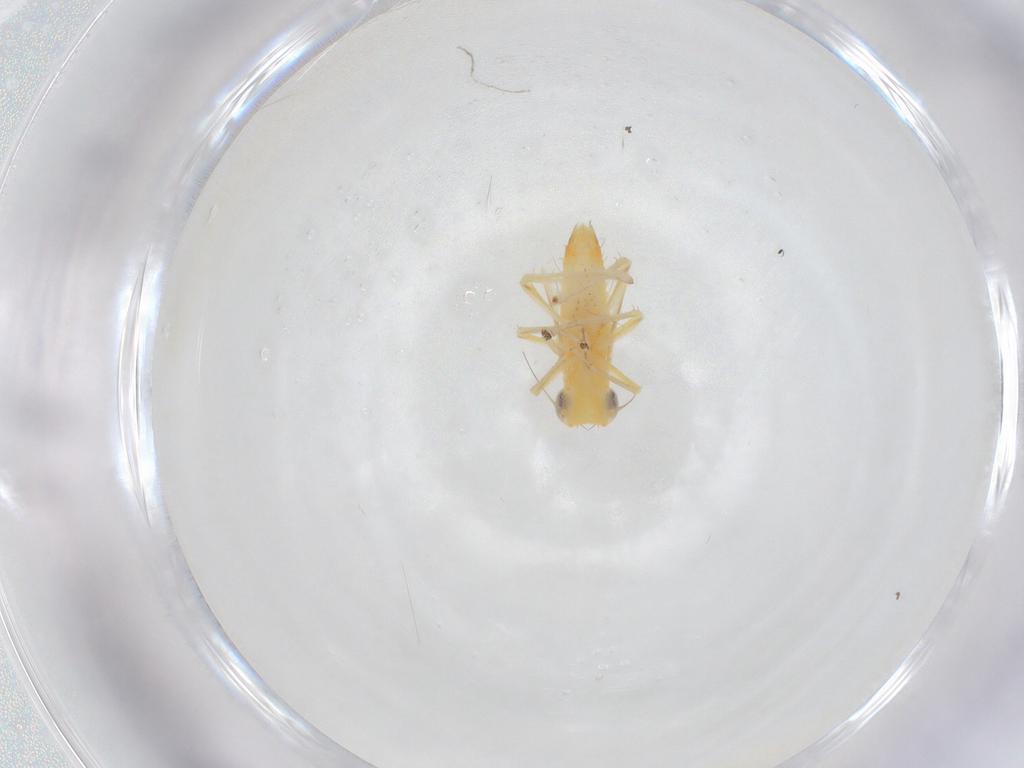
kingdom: Animalia
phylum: Arthropoda
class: Insecta
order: Hemiptera
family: Cicadellidae
